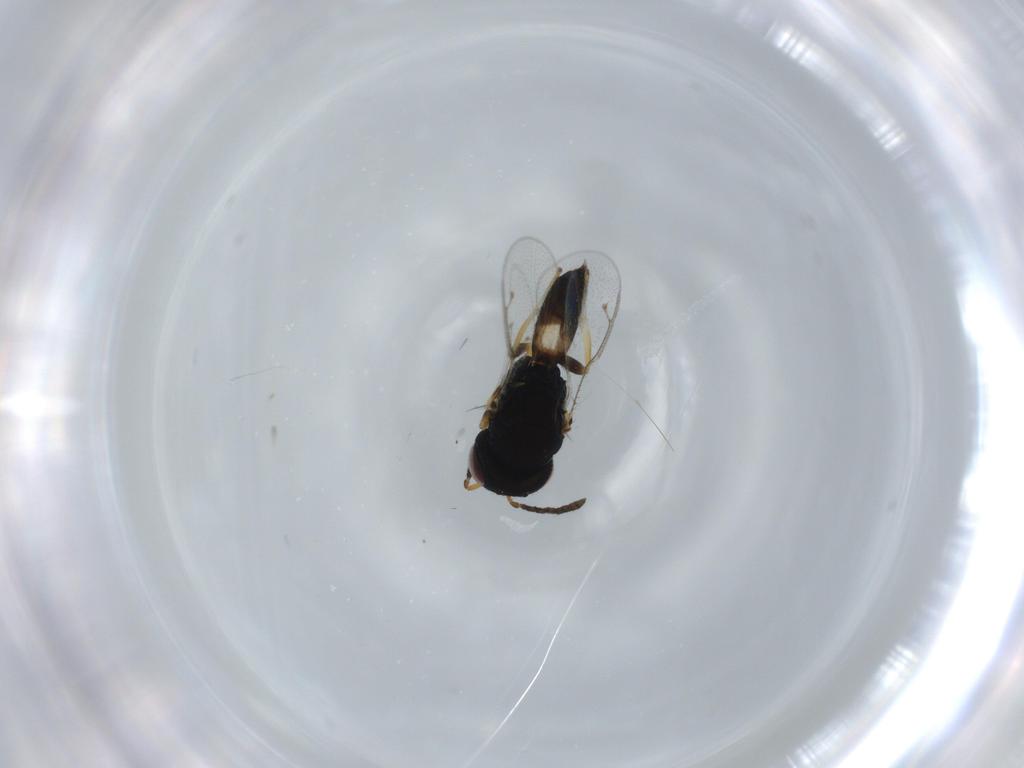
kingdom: Animalia
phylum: Arthropoda
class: Insecta
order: Hymenoptera
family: Pteromalidae
